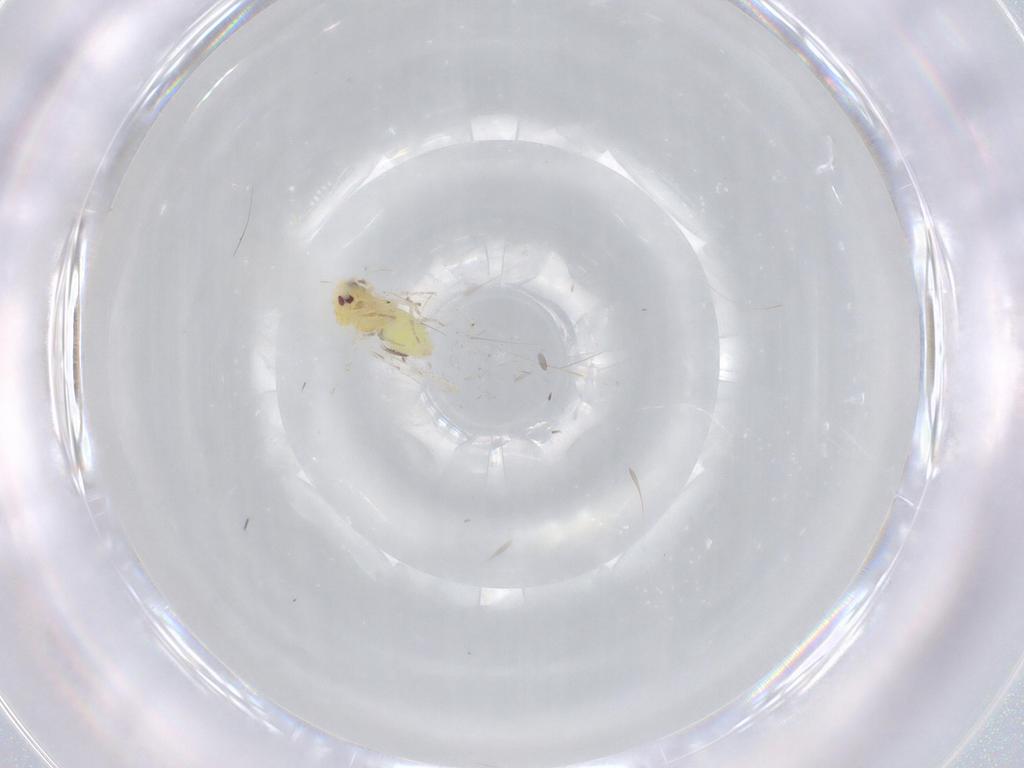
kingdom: Animalia
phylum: Arthropoda
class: Insecta
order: Hemiptera
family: Aleyrodidae
